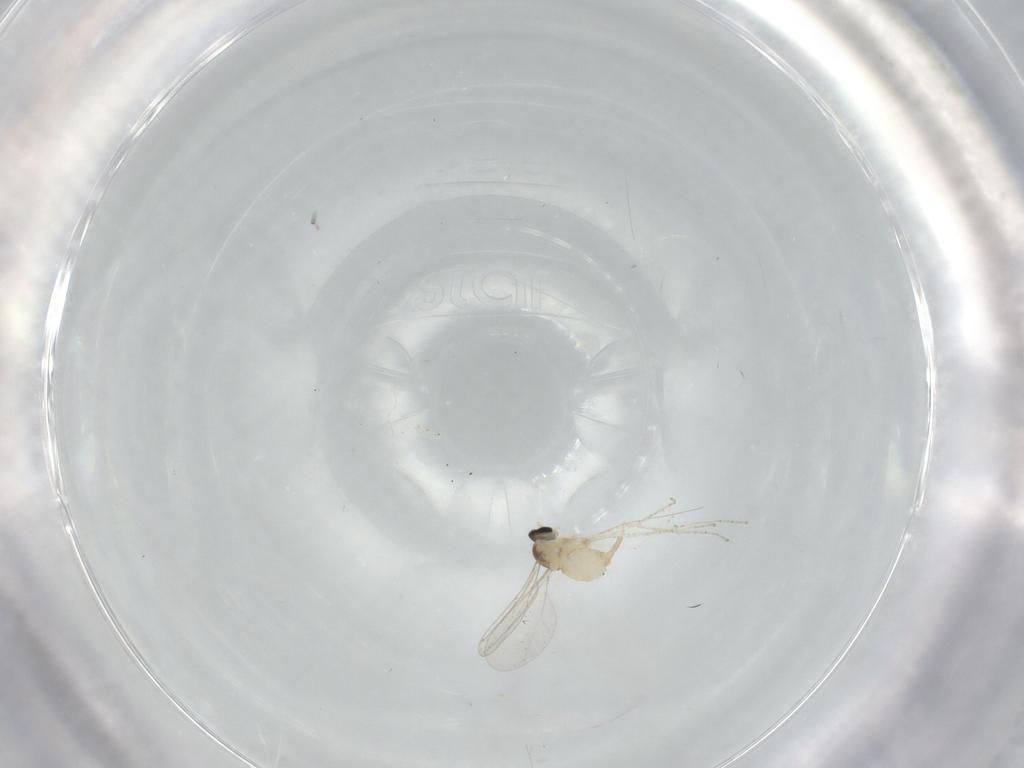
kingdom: Animalia
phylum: Arthropoda
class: Insecta
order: Diptera
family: Cecidomyiidae
